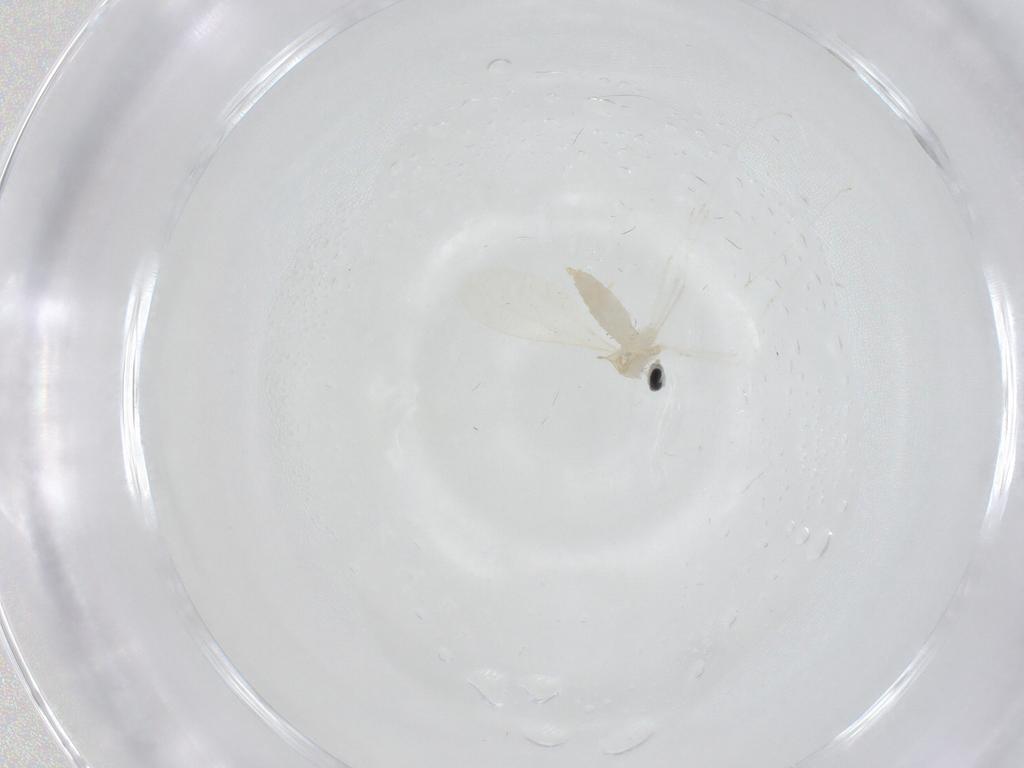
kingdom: Animalia
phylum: Arthropoda
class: Insecta
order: Diptera
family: Cecidomyiidae
